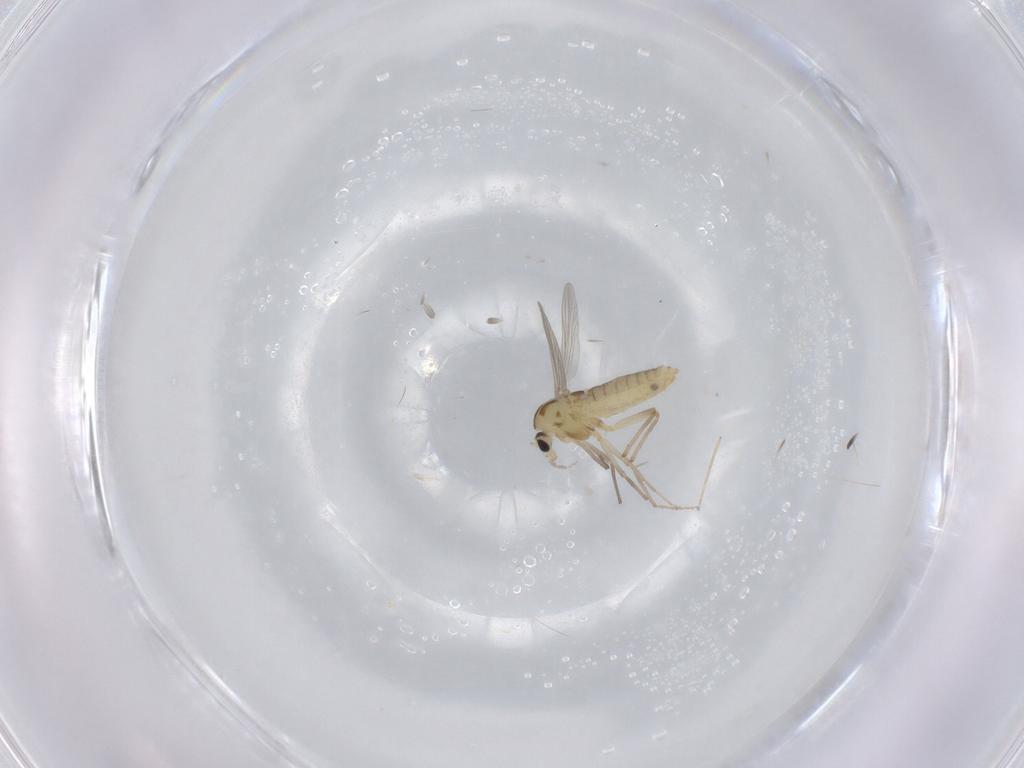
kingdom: Animalia
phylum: Arthropoda
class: Insecta
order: Diptera
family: Chironomidae
